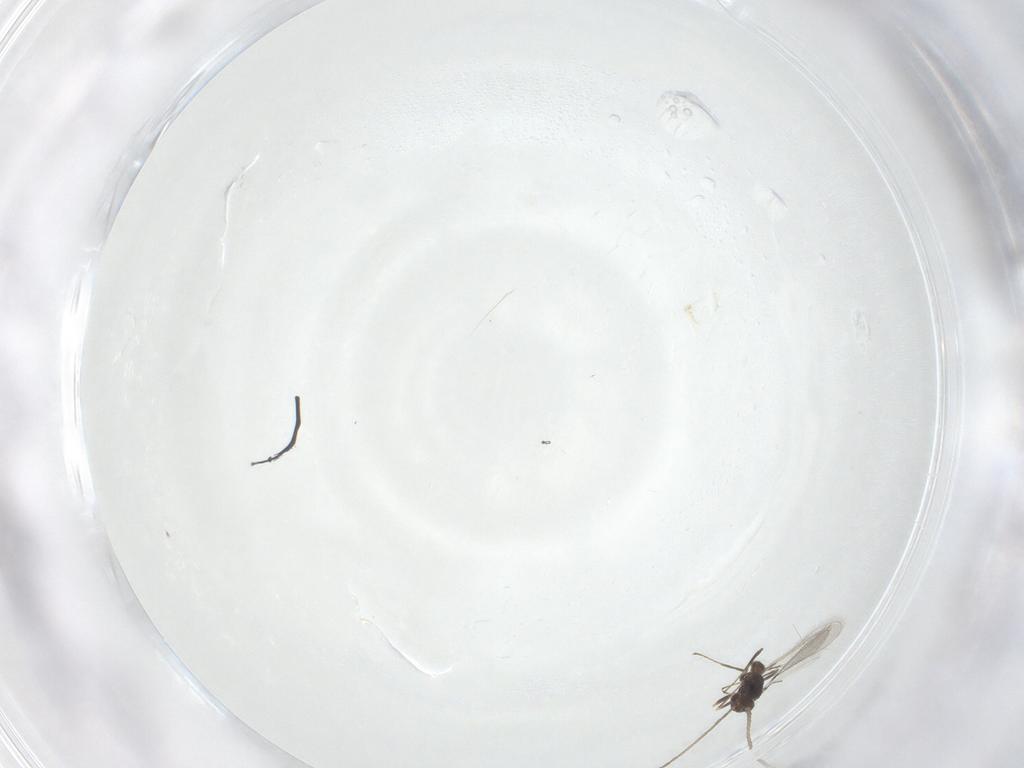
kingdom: Animalia
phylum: Arthropoda
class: Insecta
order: Hymenoptera
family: Mymaridae
